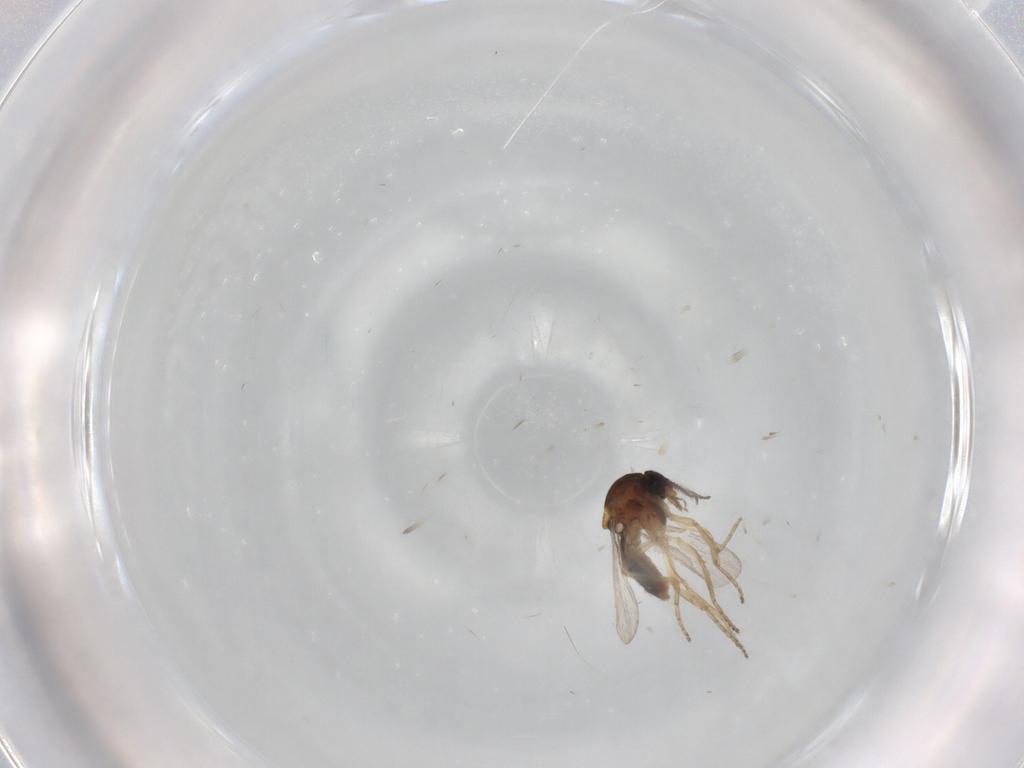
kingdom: Animalia
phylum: Arthropoda
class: Insecta
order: Diptera
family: Ceratopogonidae
